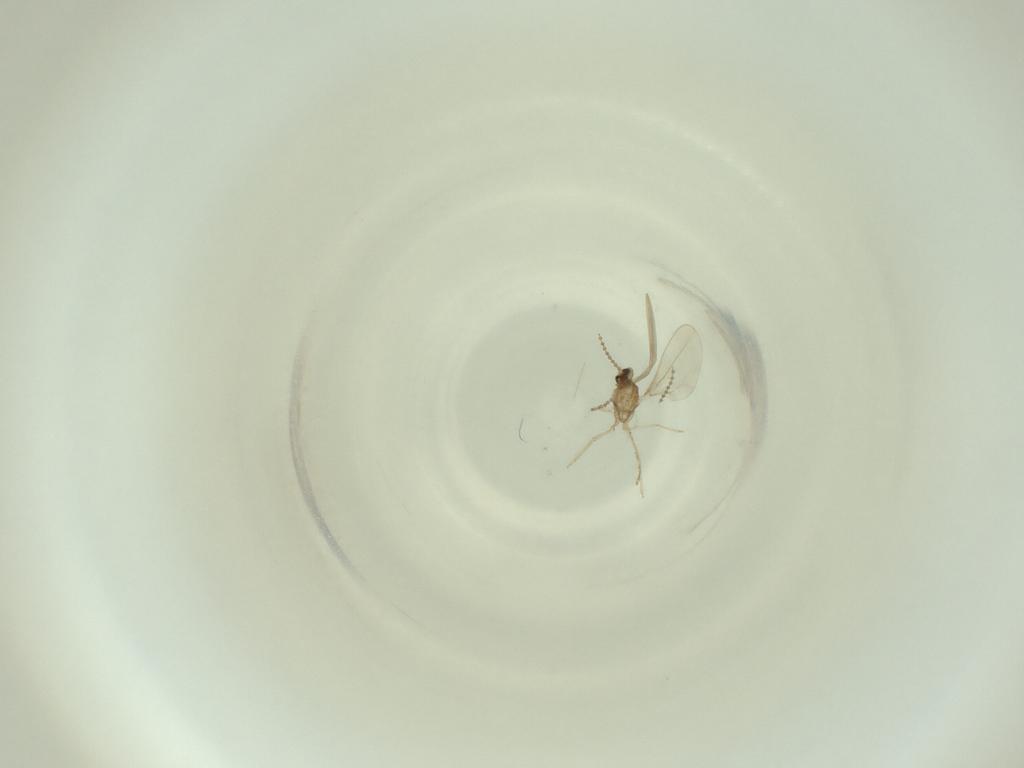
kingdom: Animalia
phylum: Arthropoda
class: Insecta
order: Diptera
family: Cecidomyiidae
